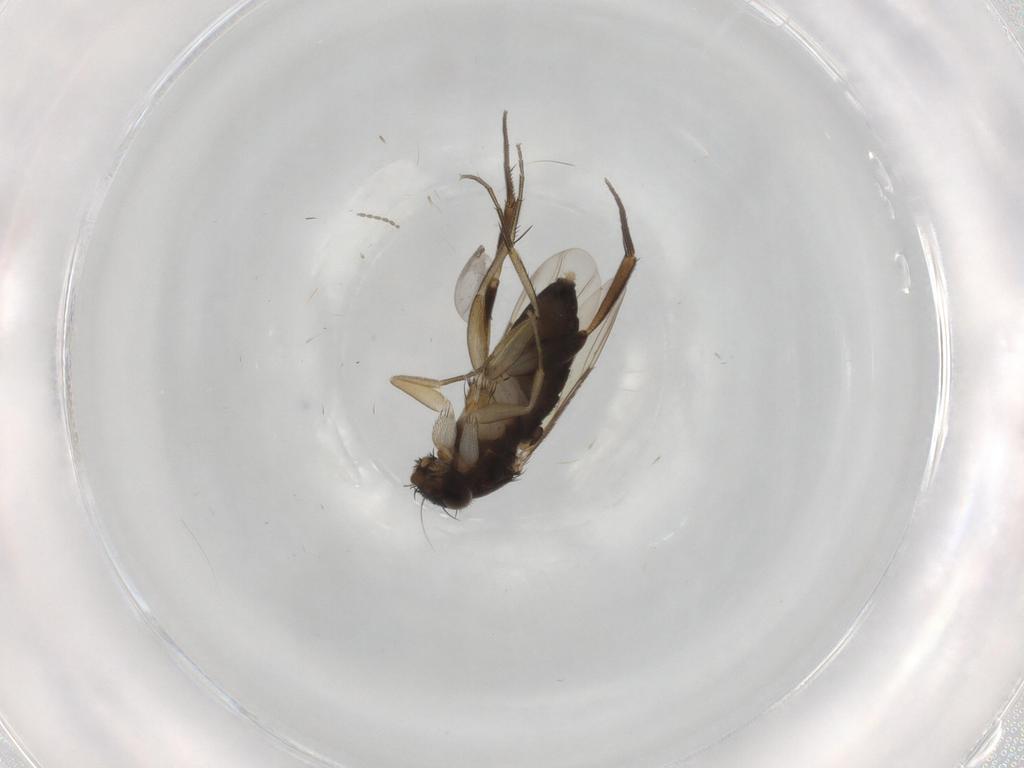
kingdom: Animalia
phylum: Arthropoda
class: Insecta
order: Diptera
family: Phoridae
